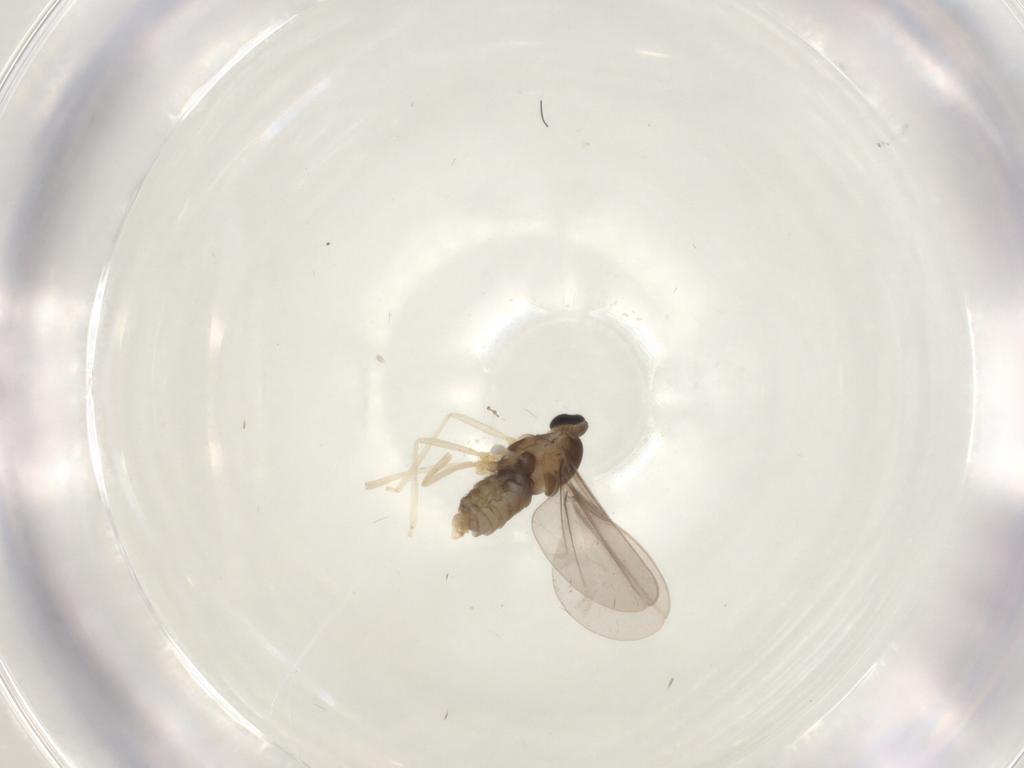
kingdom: Animalia
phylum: Arthropoda
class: Insecta
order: Diptera
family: Cecidomyiidae
